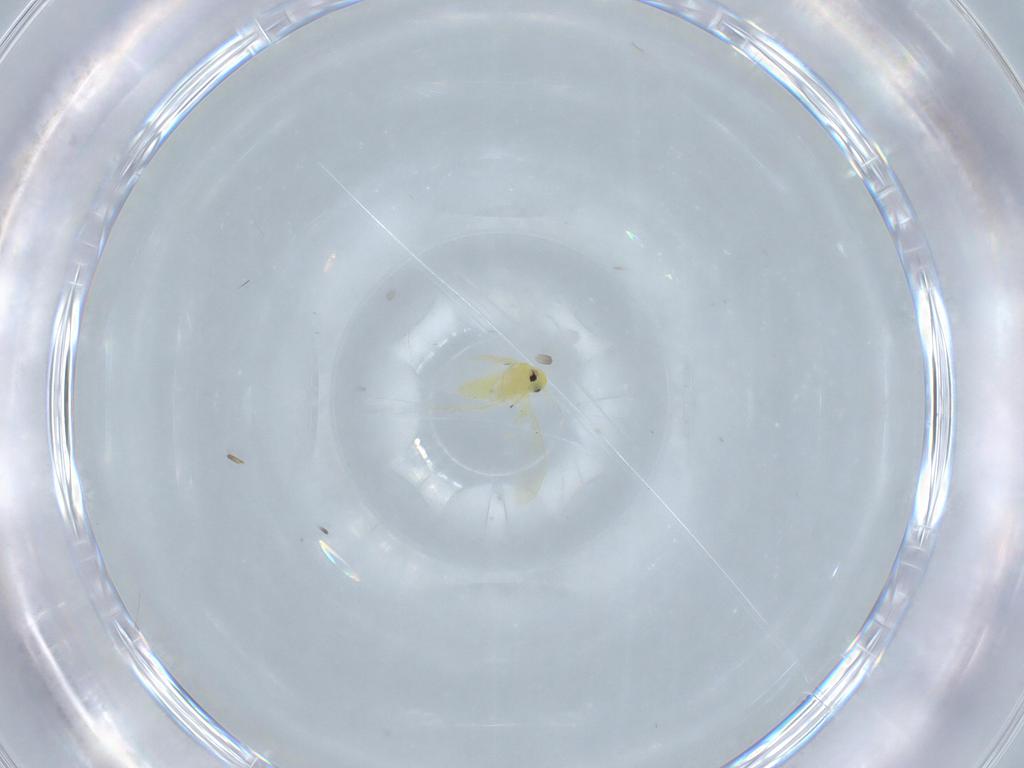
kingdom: Animalia
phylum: Arthropoda
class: Insecta
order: Hemiptera
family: Aleyrodidae
